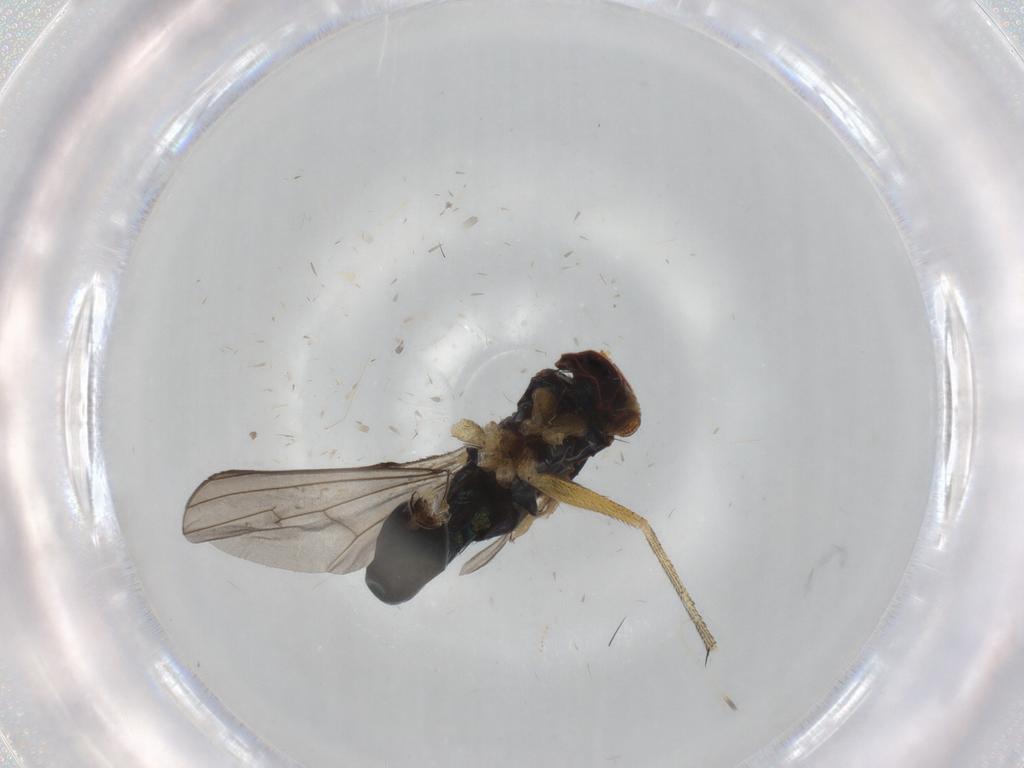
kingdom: Animalia
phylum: Arthropoda
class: Insecta
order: Diptera
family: Dolichopodidae
